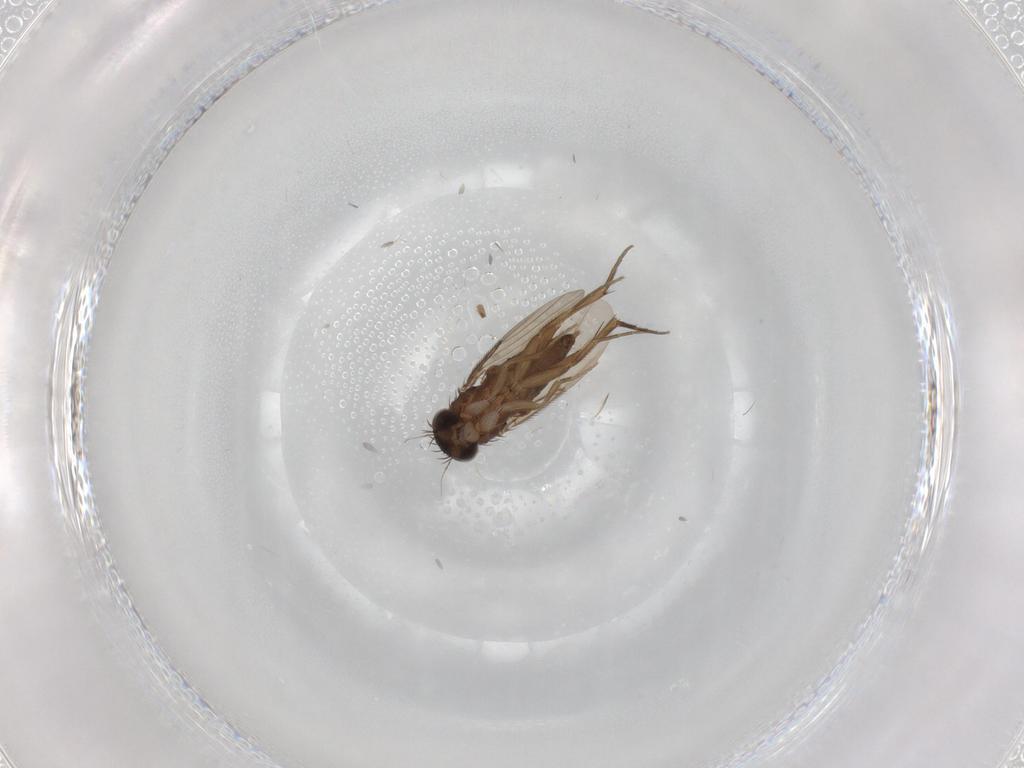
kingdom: Animalia
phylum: Arthropoda
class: Insecta
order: Diptera
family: Phoridae
